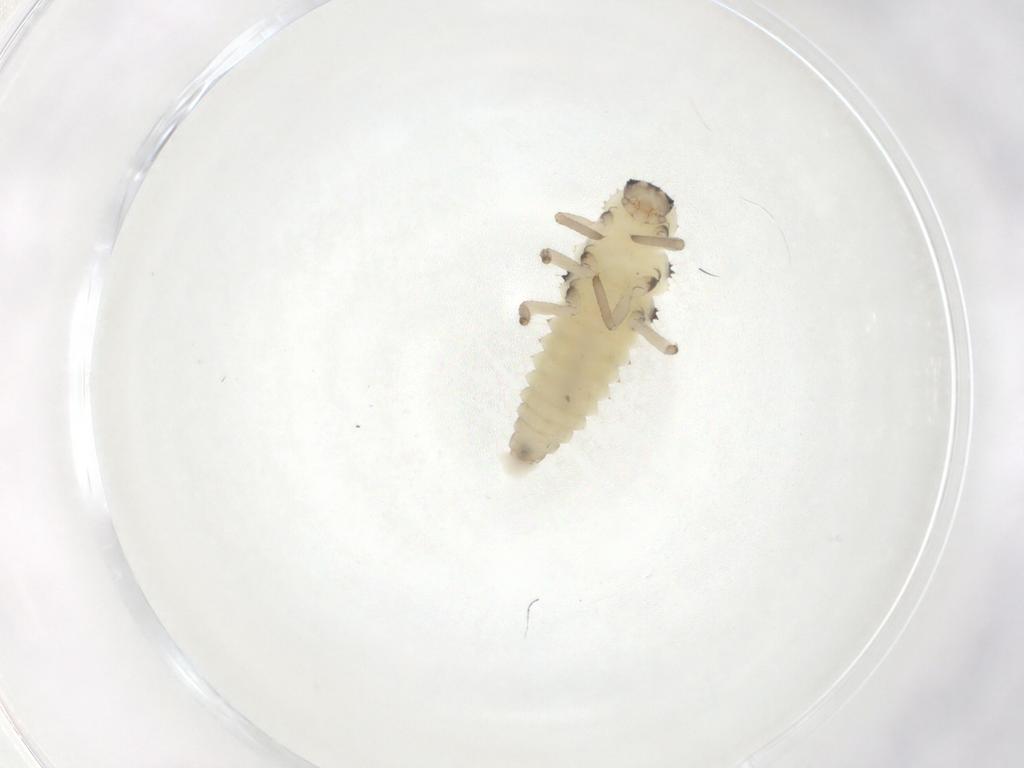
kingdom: Animalia
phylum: Arthropoda
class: Insecta
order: Coleoptera
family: Coccinellidae
